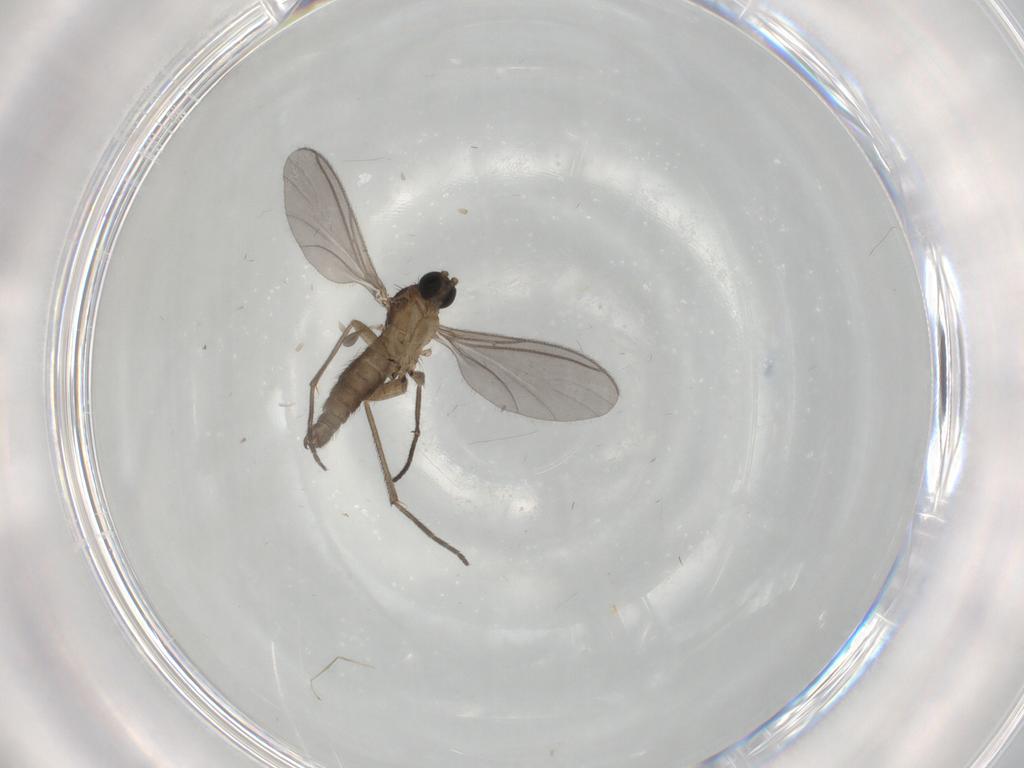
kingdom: Animalia
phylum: Arthropoda
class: Insecta
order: Diptera
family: Sciaridae
